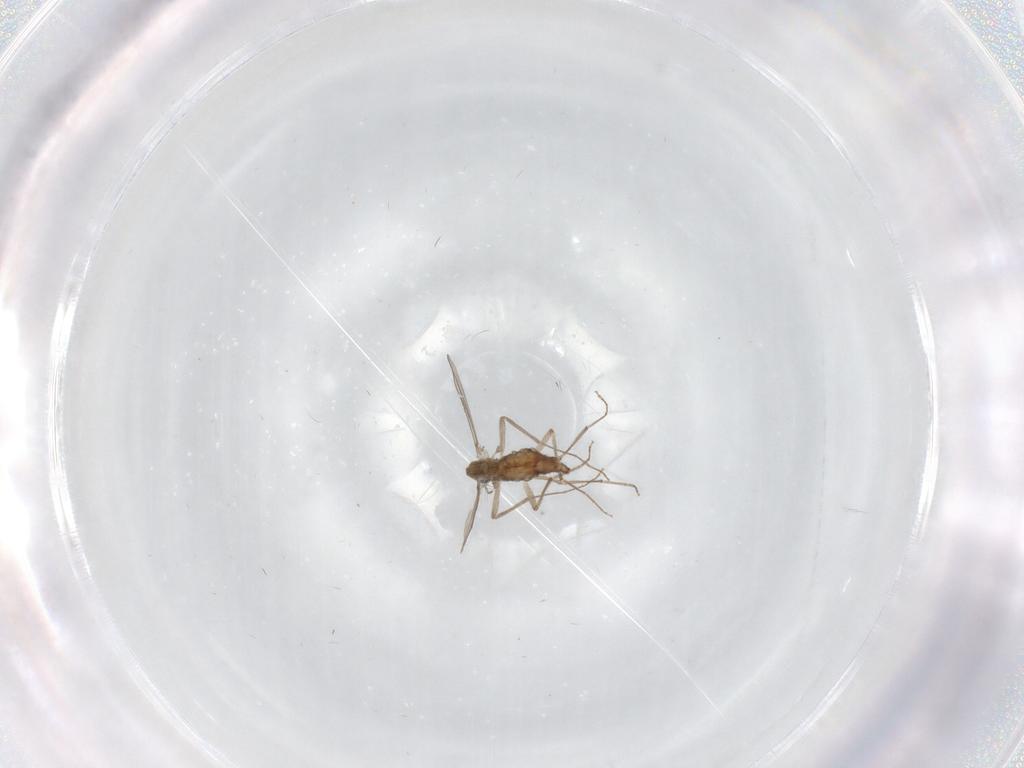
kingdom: Animalia
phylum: Arthropoda
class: Insecta
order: Diptera
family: Chironomidae
